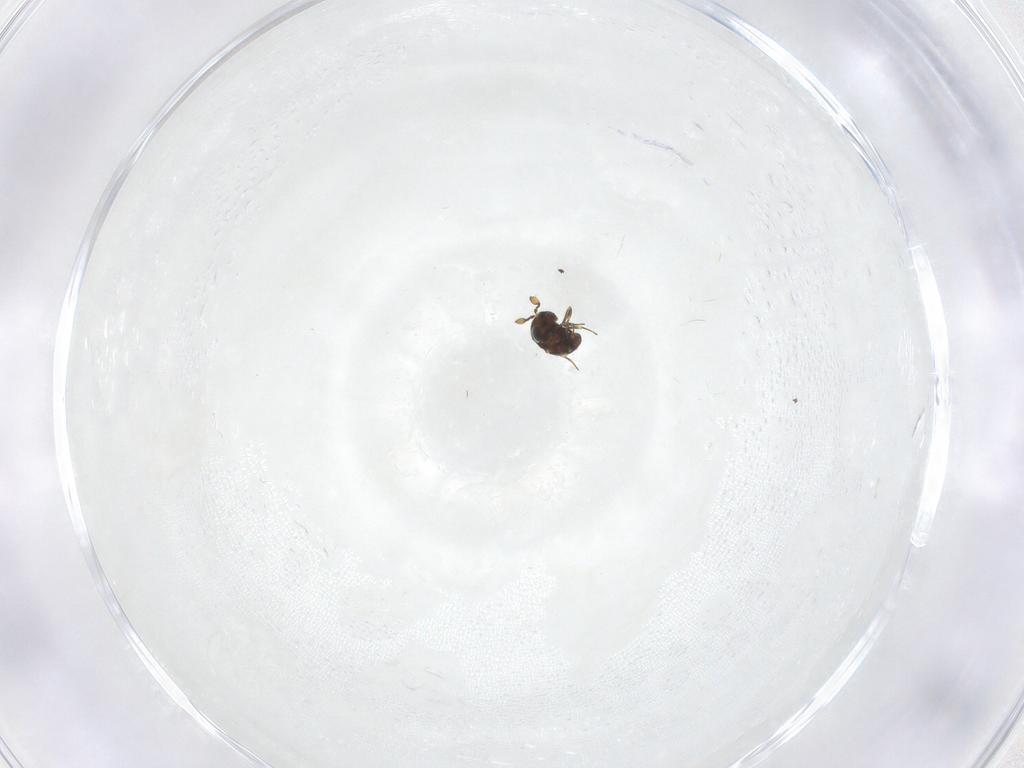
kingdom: Animalia
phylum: Arthropoda
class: Insecta
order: Hymenoptera
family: Scelionidae
